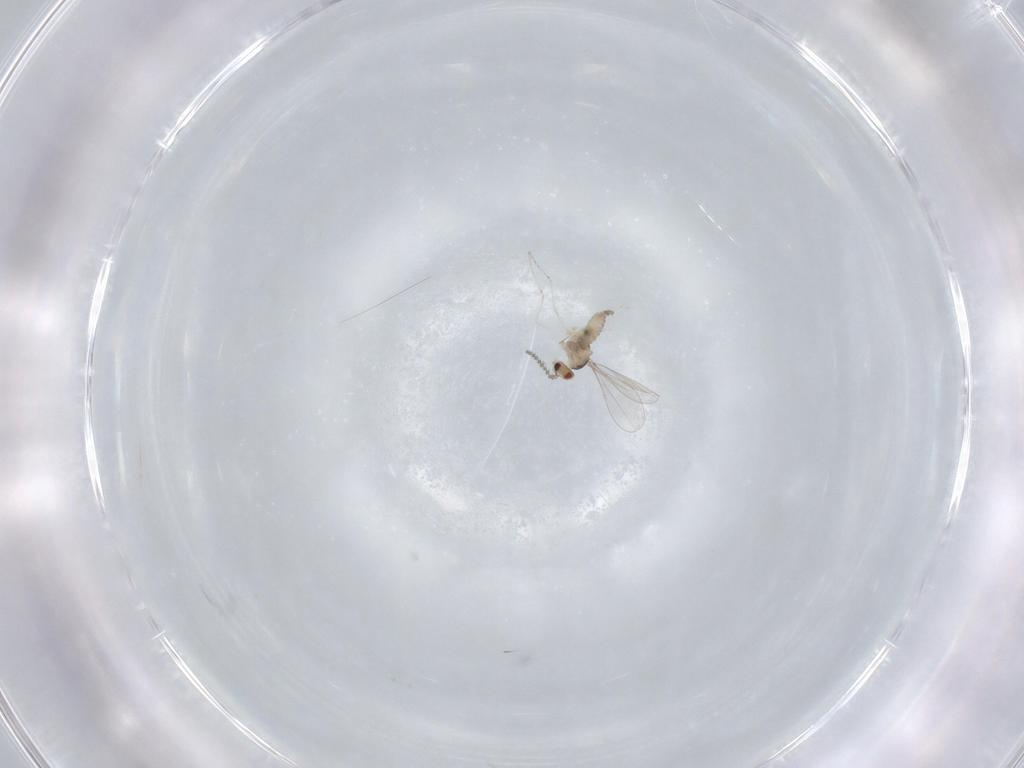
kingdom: Animalia
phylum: Arthropoda
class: Insecta
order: Diptera
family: Cecidomyiidae
